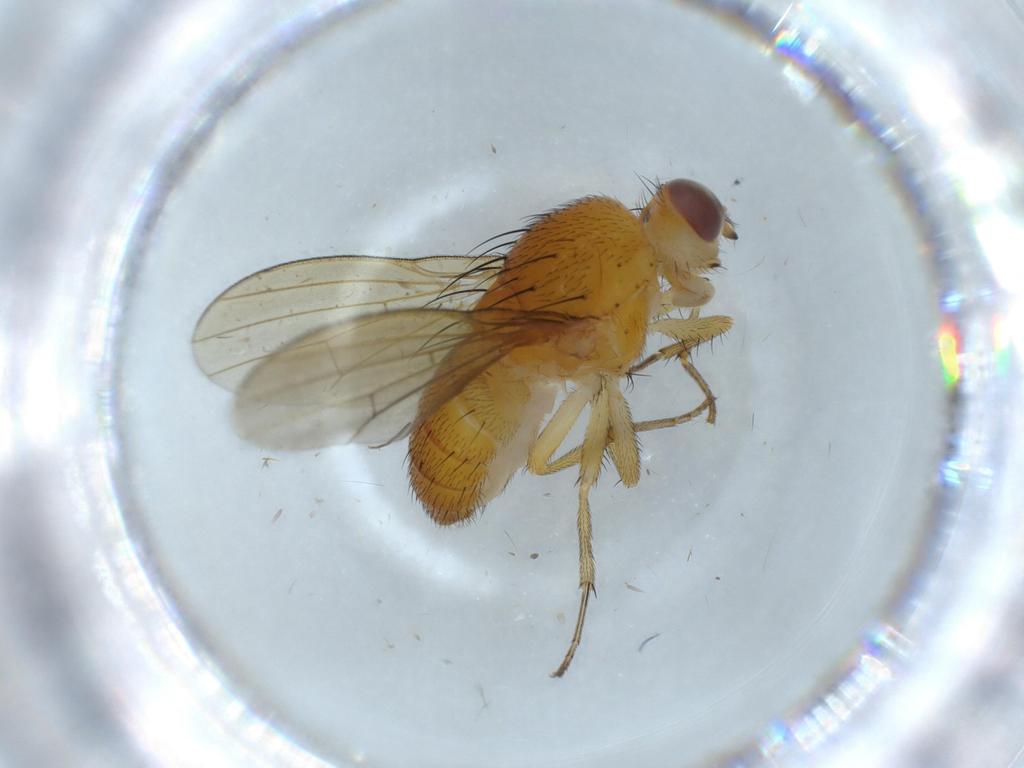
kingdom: Animalia
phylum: Arthropoda
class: Insecta
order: Diptera
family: Lauxaniidae
